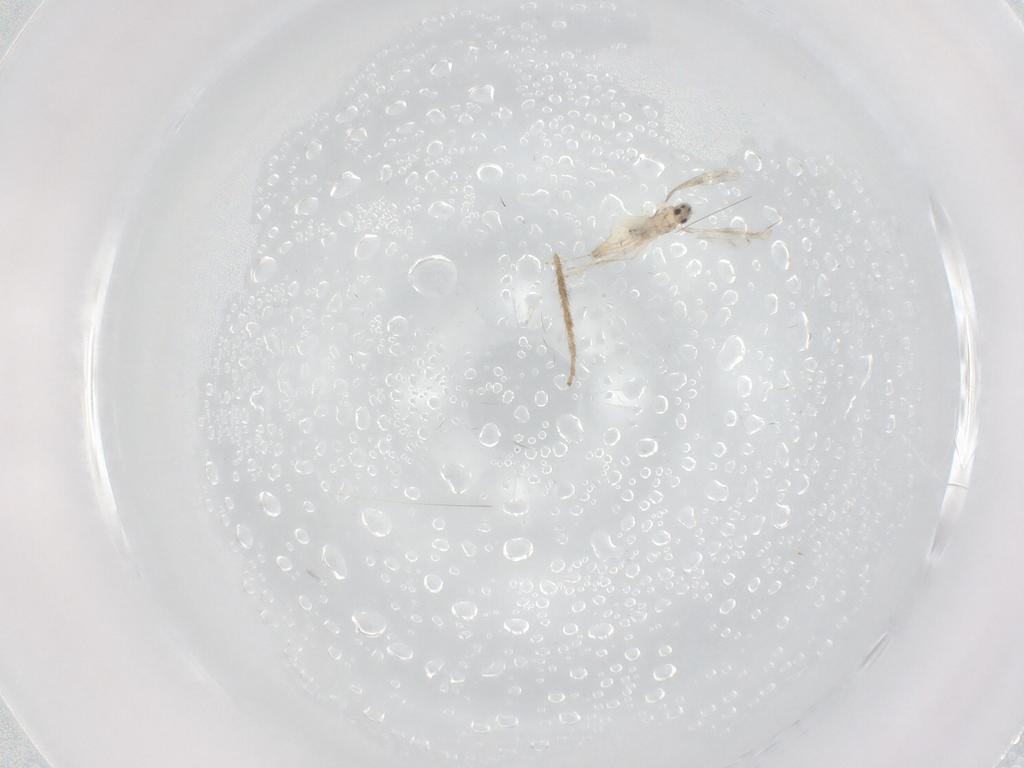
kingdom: Animalia
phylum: Arthropoda
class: Insecta
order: Diptera
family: Cecidomyiidae
